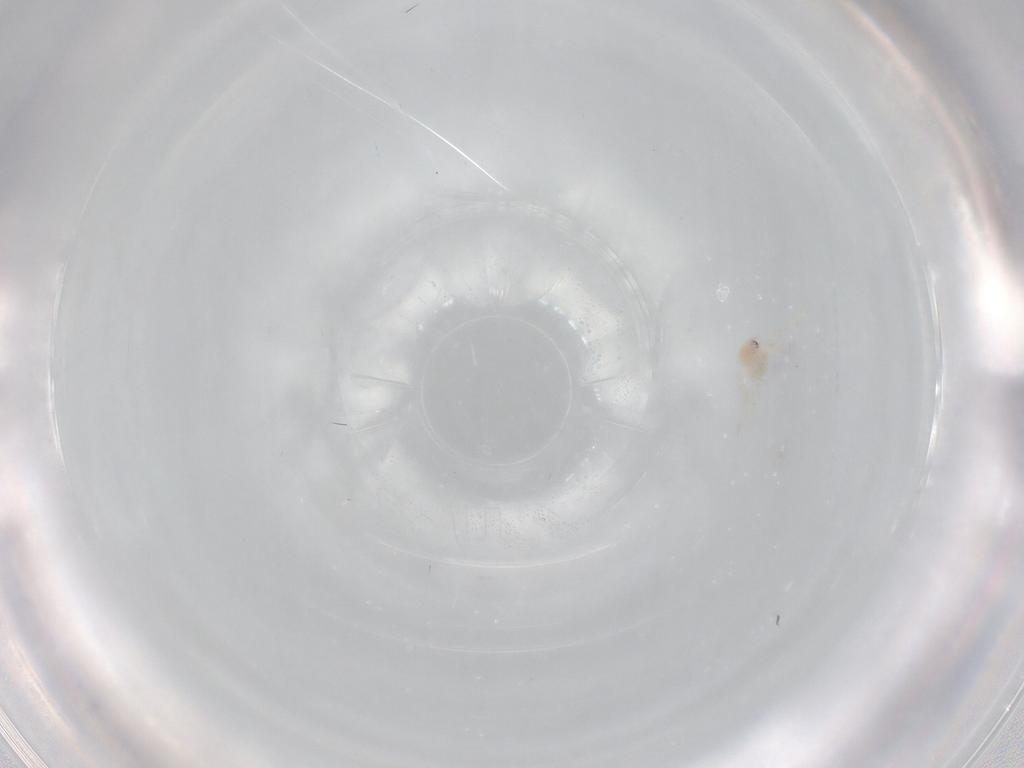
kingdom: Animalia
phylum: Arthropoda
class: Insecta
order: Diptera
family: Dolichopodidae
